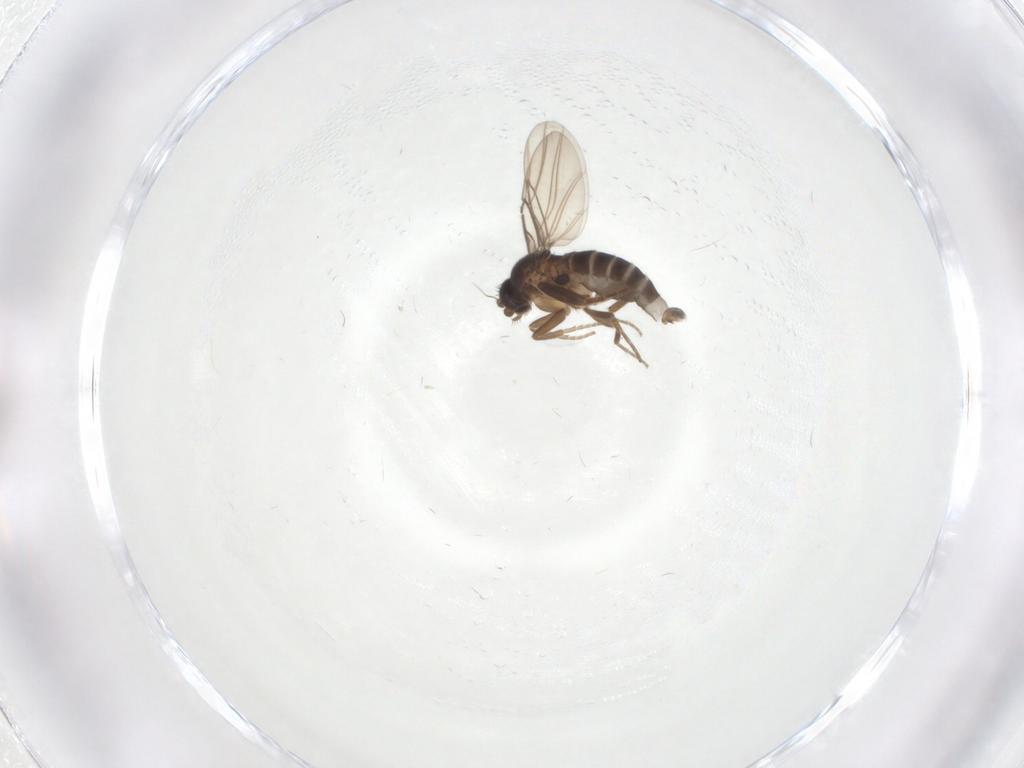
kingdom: Animalia
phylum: Arthropoda
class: Insecta
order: Diptera
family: Phoridae
